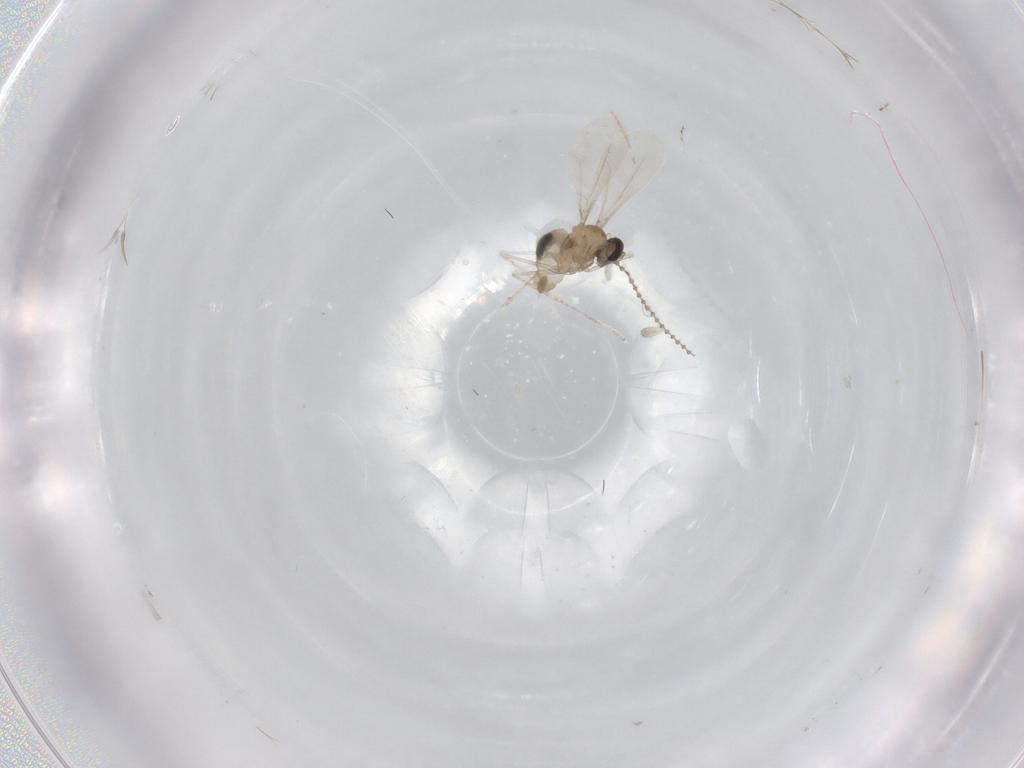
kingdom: Animalia
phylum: Arthropoda
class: Insecta
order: Diptera
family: Cecidomyiidae
